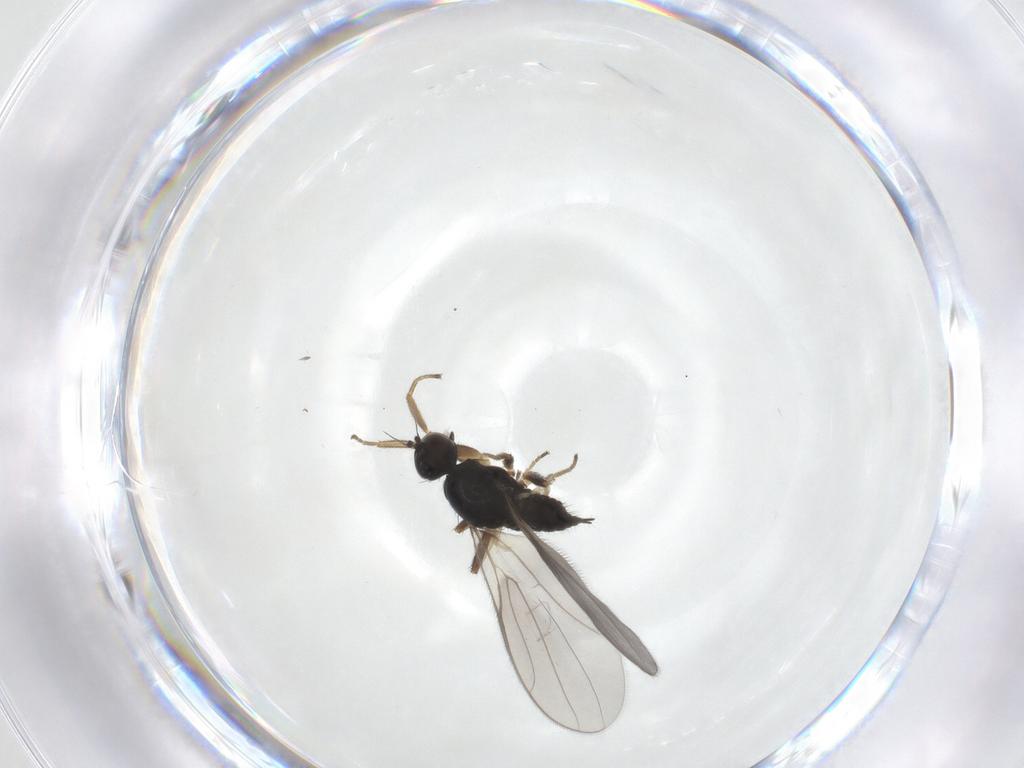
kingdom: Animalia
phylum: Arthropoda
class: Insecta
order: Diptera
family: Hybotidae
